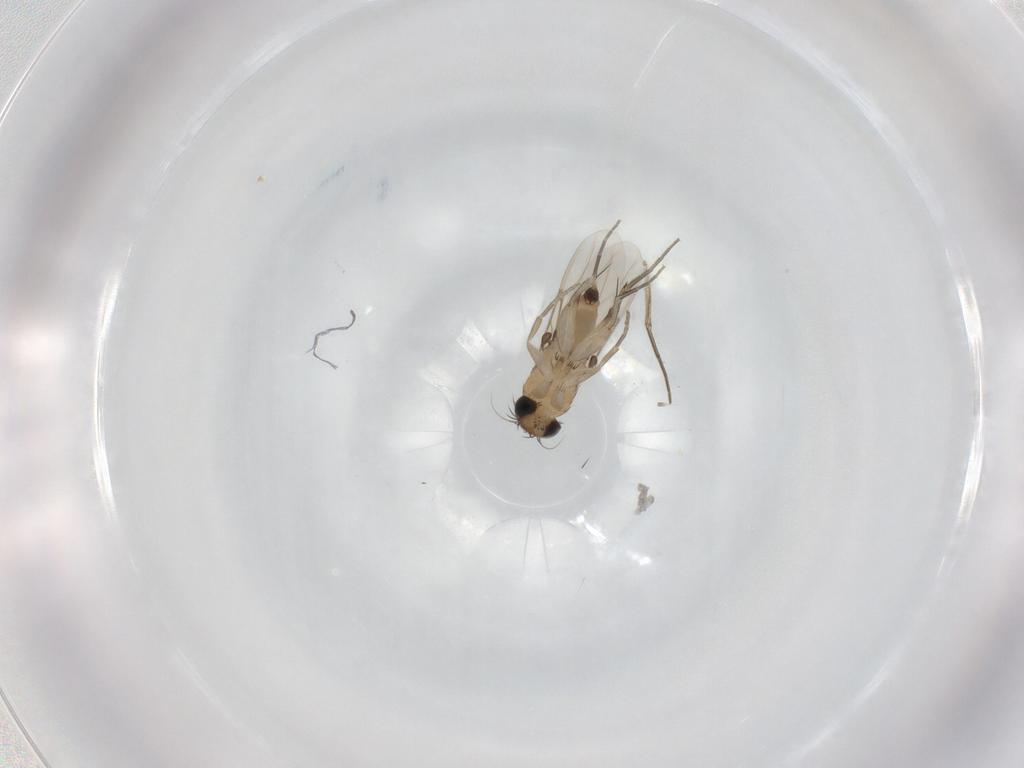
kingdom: Animalia
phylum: Arthropoda
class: Insecta
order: Diptera
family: Phoridae
